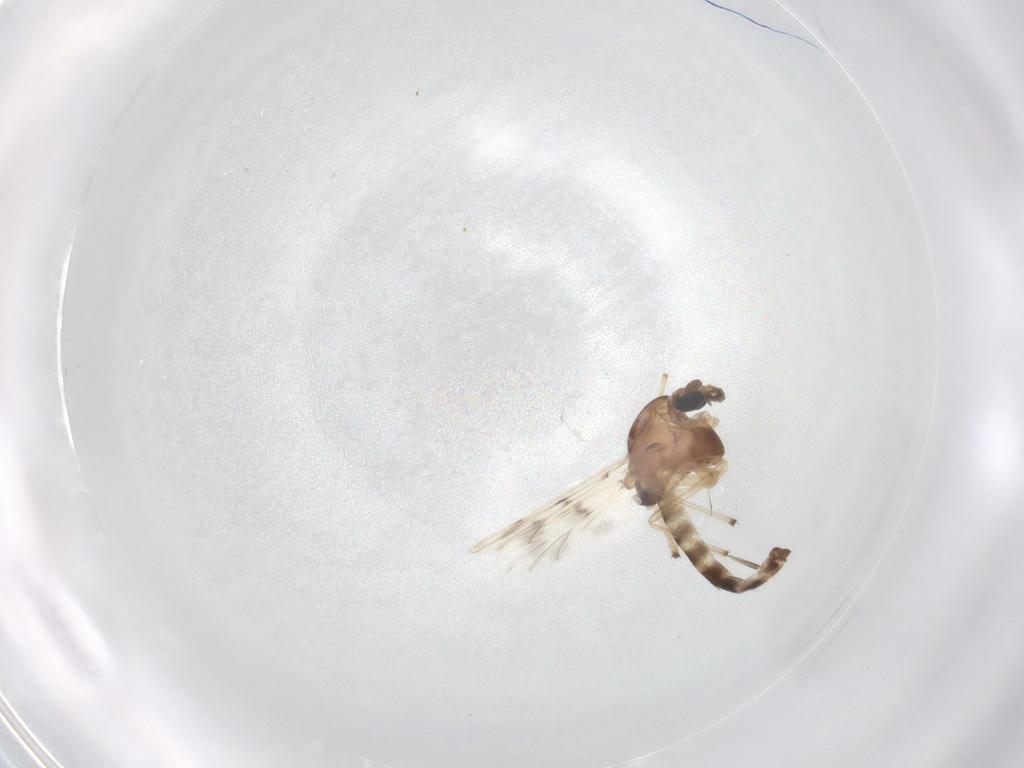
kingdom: Animalia
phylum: Arthropoda
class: Insecta
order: Diptera
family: Chironomidae
